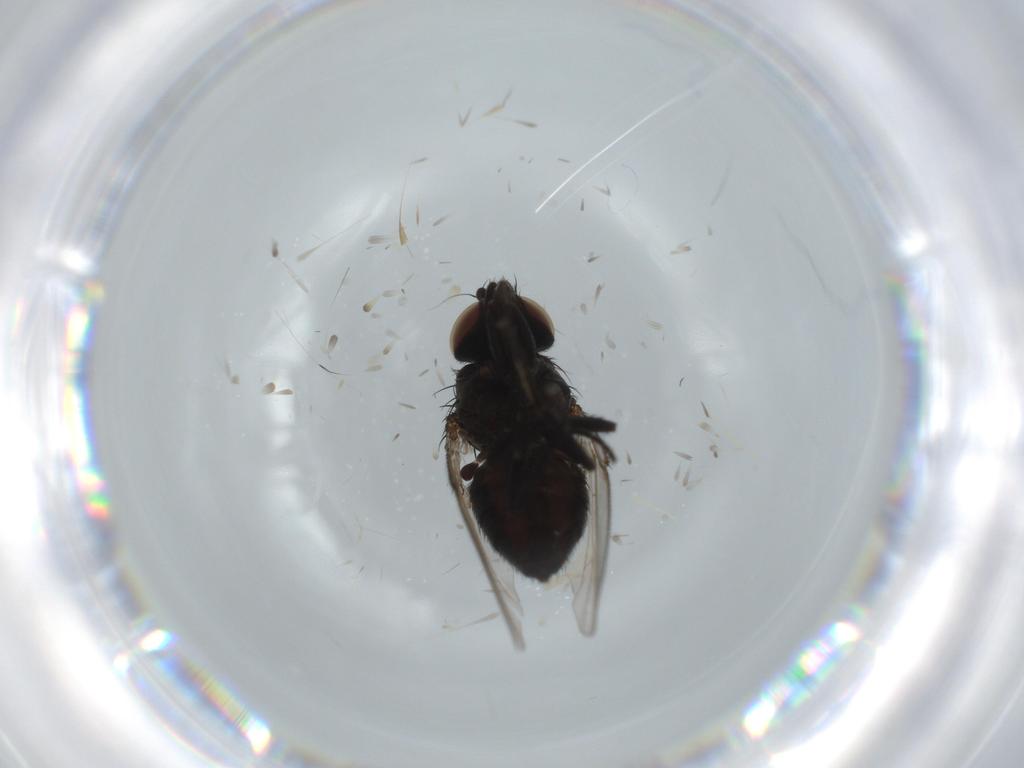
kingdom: Animalia
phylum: Arthropoda
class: Insecta
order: Diptera
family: Milichiidae
